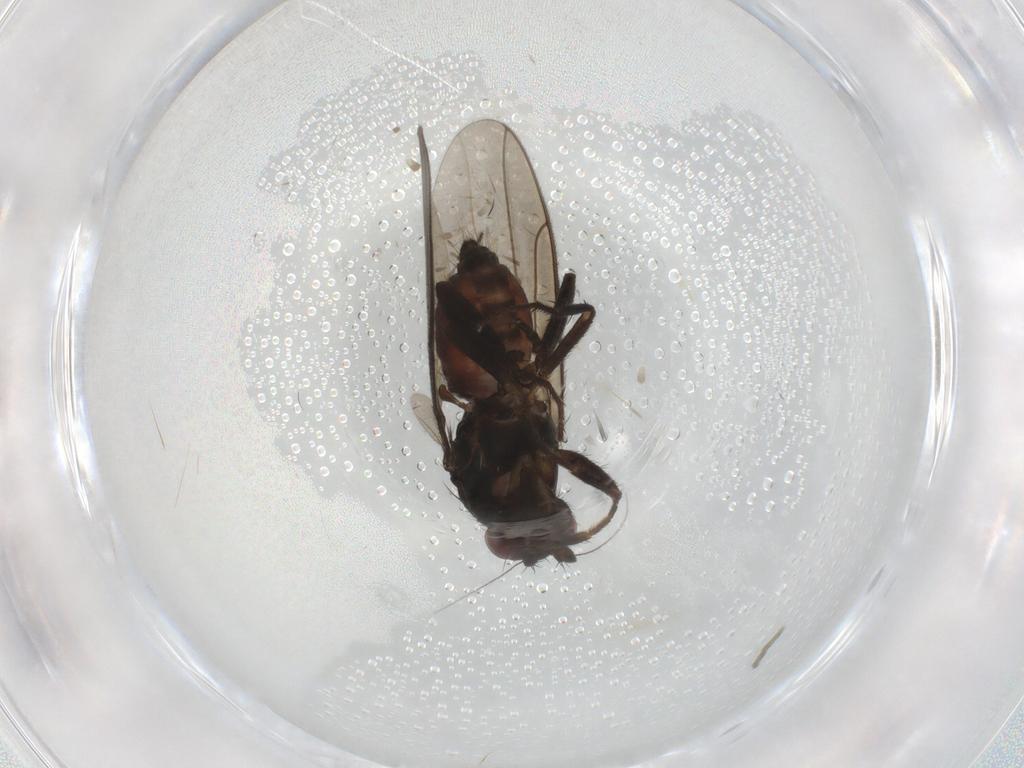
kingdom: Animalia
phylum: Arthropoda
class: Insecta
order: Diptera
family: Sphaeroceridae
